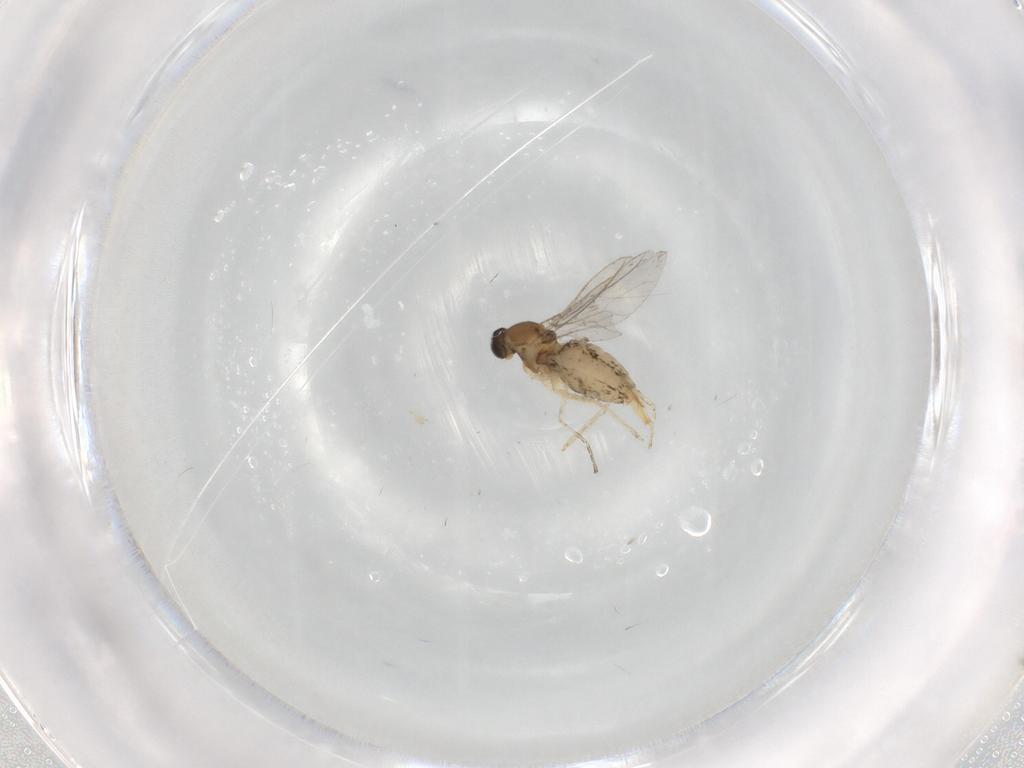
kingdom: Animalia
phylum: Arthropoda
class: Insecta
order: Diptera
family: Cecidomyiidae
